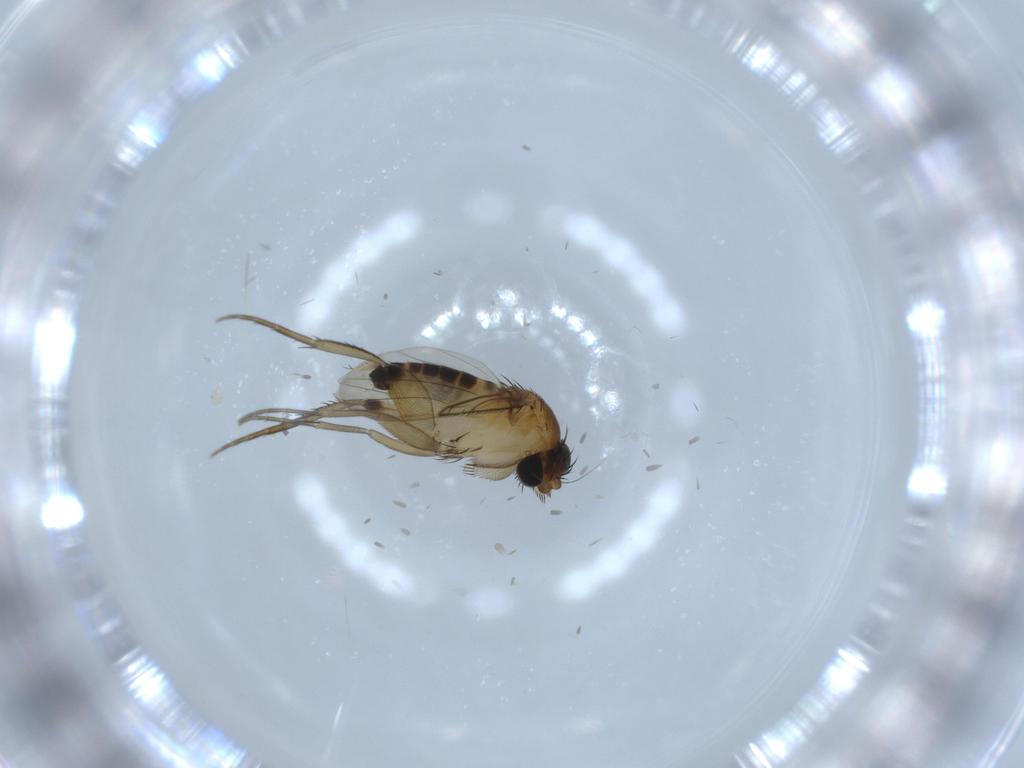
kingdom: Animalia
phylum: Arthropoda
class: Insecta
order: Diptera
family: Phoridae
